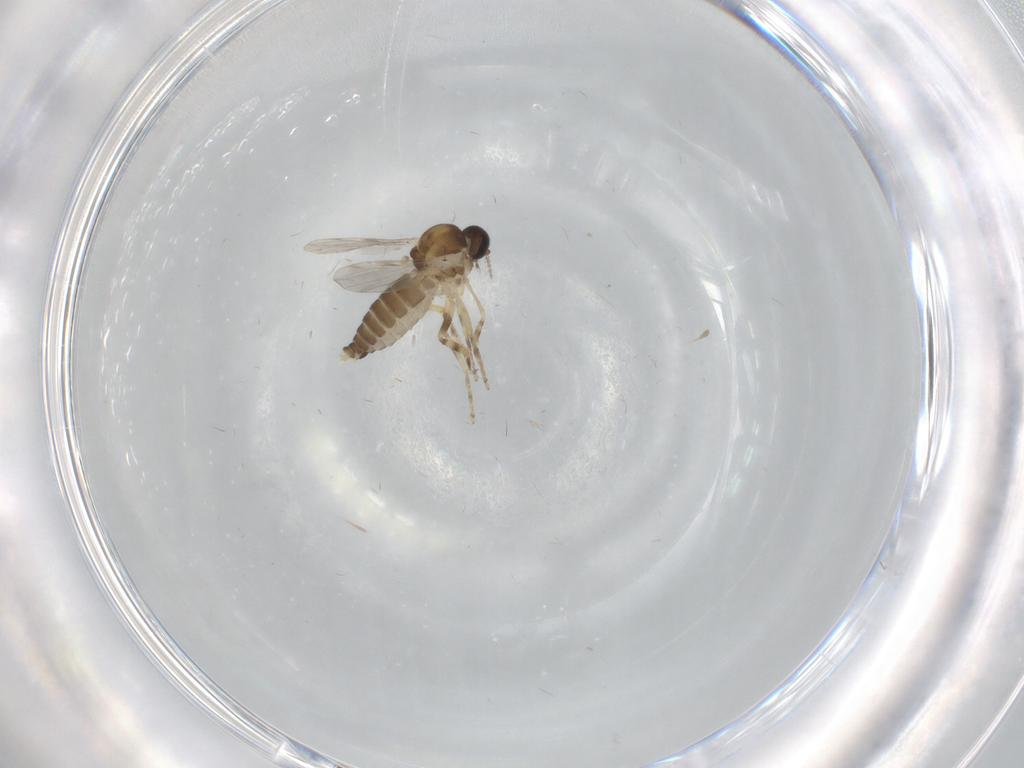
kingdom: Animalia
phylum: Arthropoda
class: Insecta
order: Diptera
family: Ceratopogonidae
